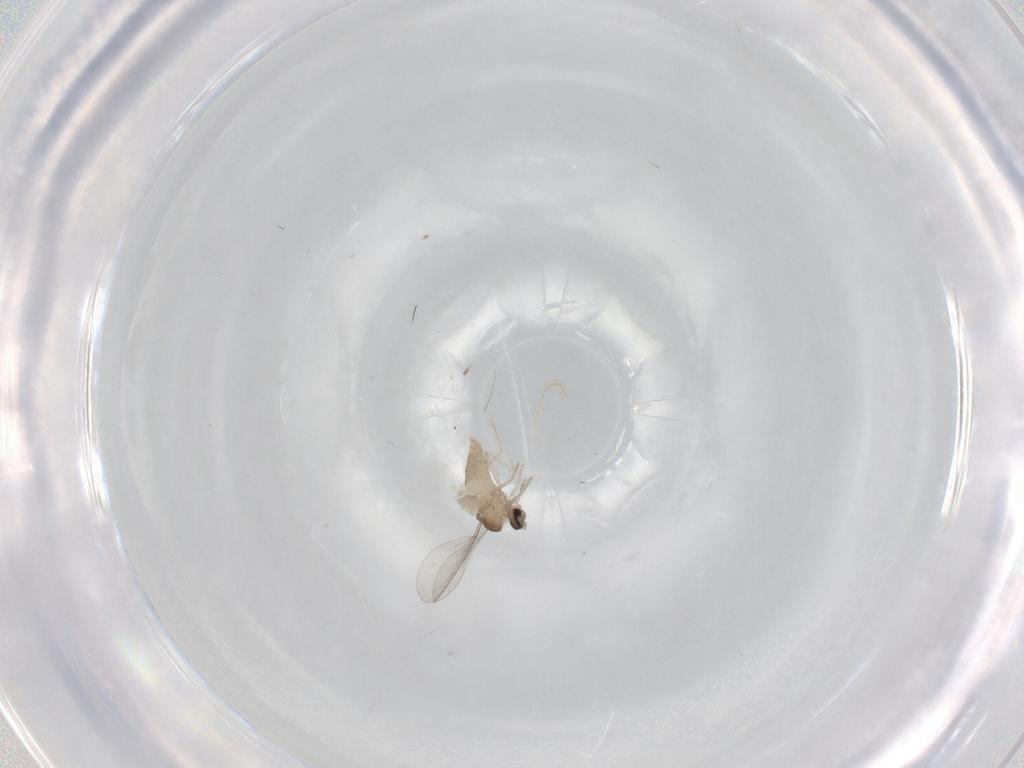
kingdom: Animalia
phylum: Arthropoda
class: Insecta
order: Diptera
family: Cecidomyiidae
